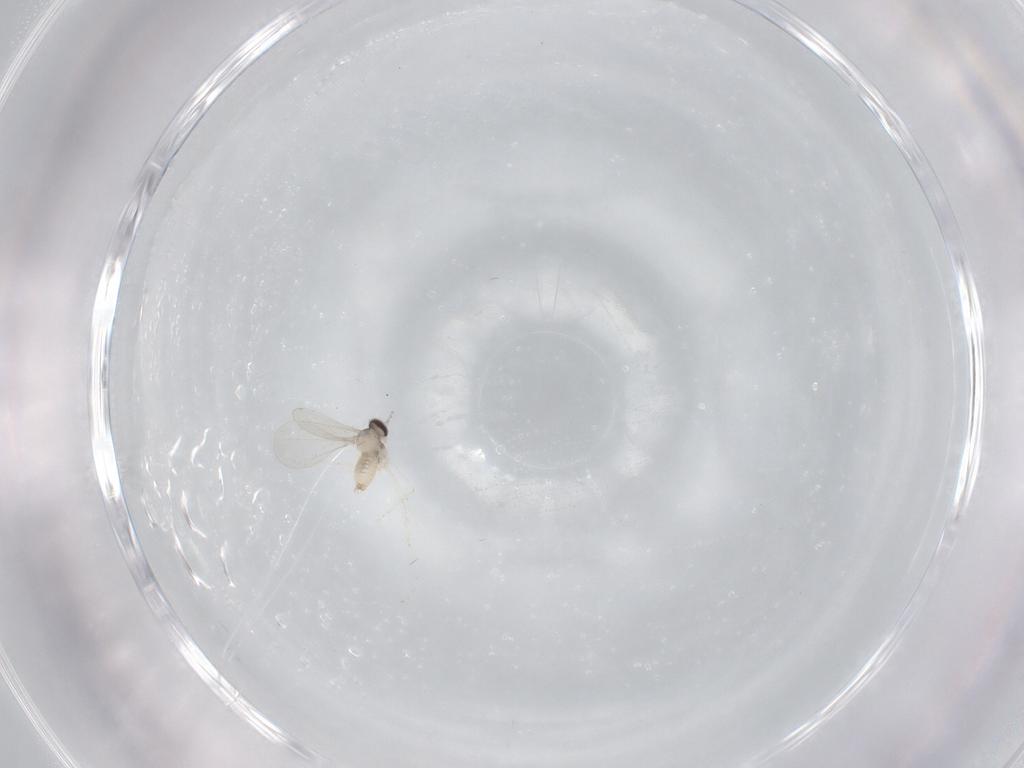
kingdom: Animalia
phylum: Arthropoda
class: Insecta
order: Diptera
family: Cecidomyiidae
